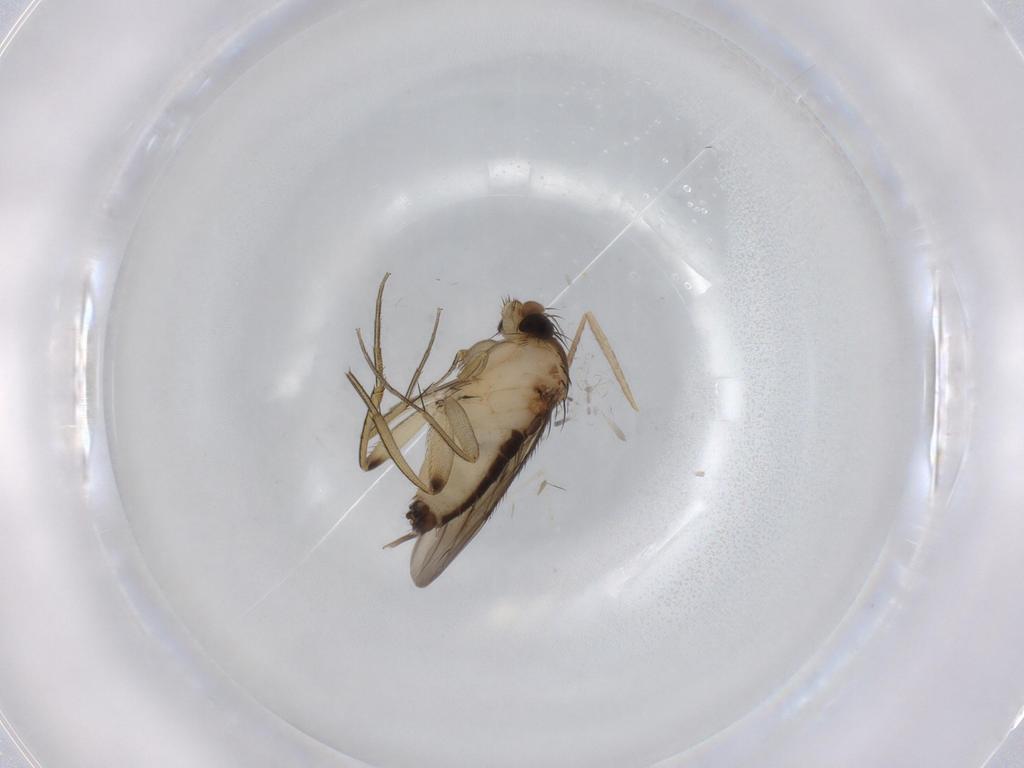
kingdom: Animalia
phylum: Arthropoda
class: Insecta
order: Diptera
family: Phoridae
